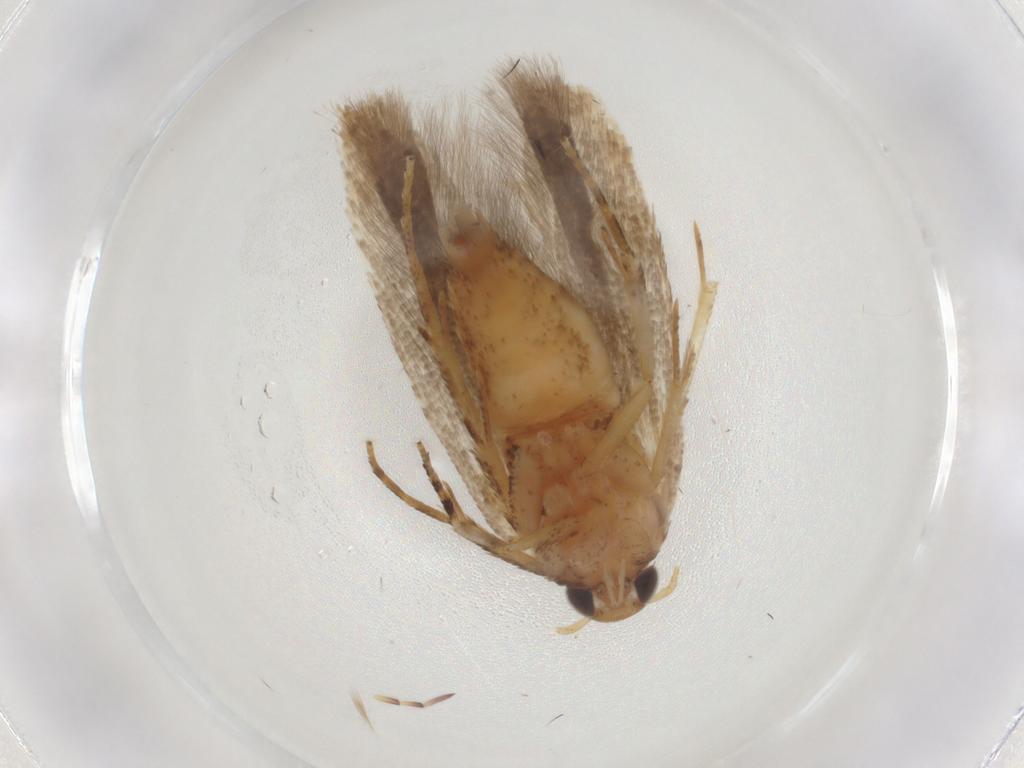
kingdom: Animalia
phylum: Arthropoda
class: Insecta
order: Lepidoptera
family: Gelechiidae
